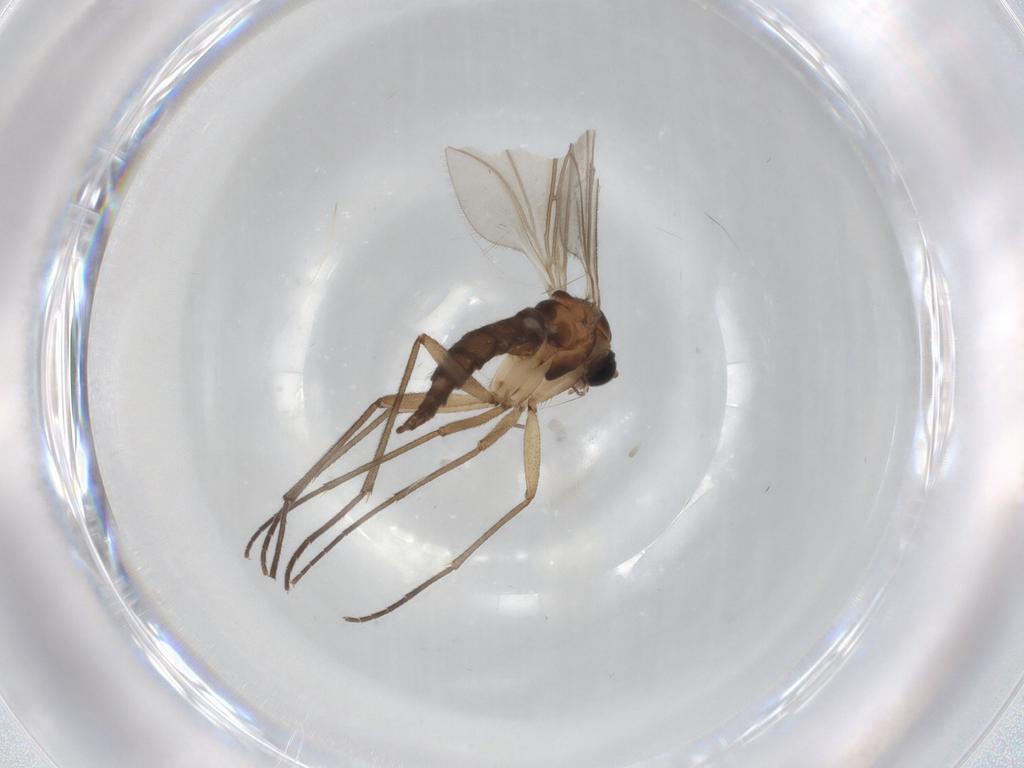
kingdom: Animalia
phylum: Arthropoda
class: Insecta
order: Diptera
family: Sciaridae
